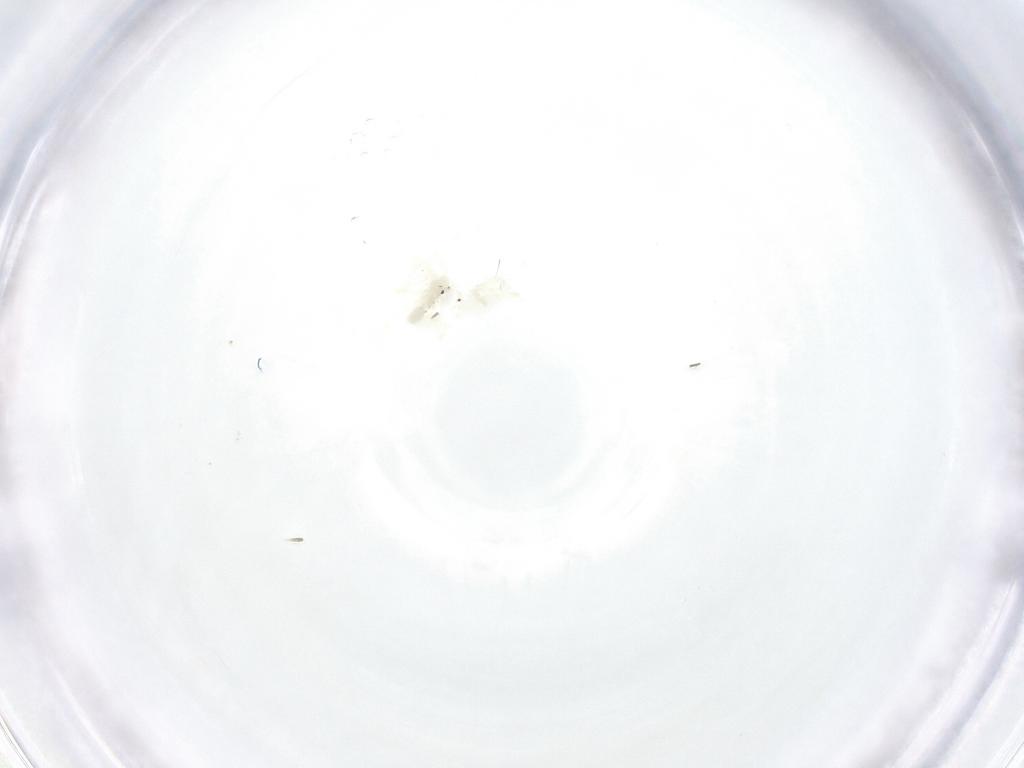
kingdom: Animalia
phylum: Arthropoda
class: Arachnida
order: Trombidiformes
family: Anystidae
